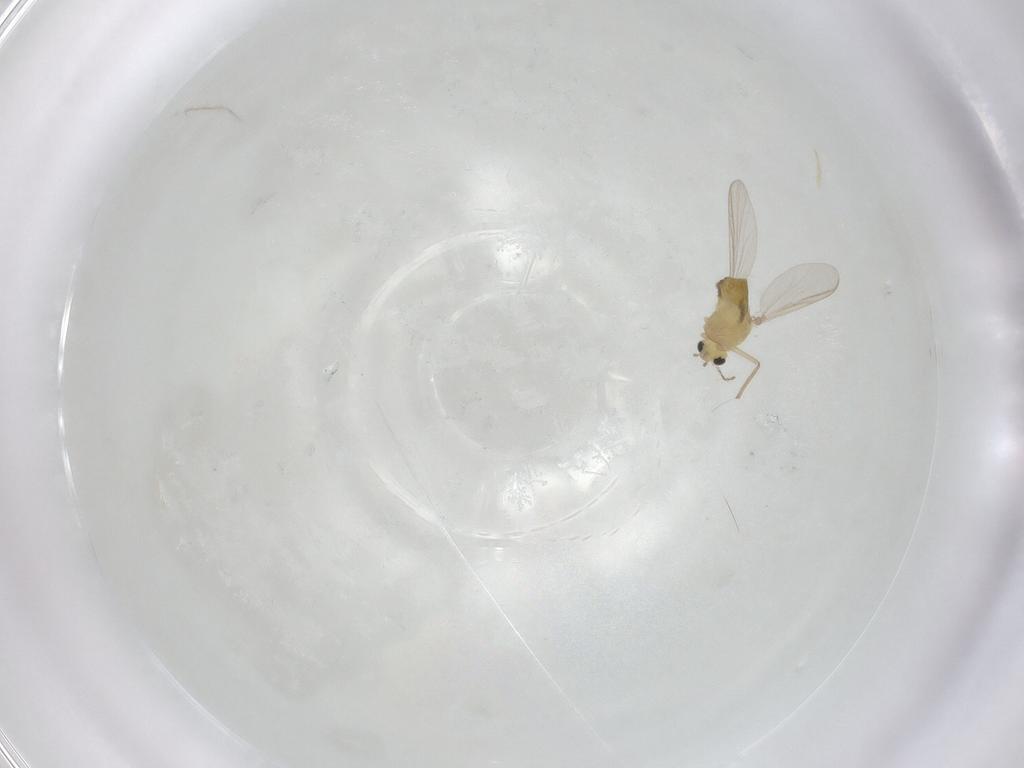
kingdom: Animalia
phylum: Arthropoda
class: Insecta
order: Diptera
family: Chironomidae
